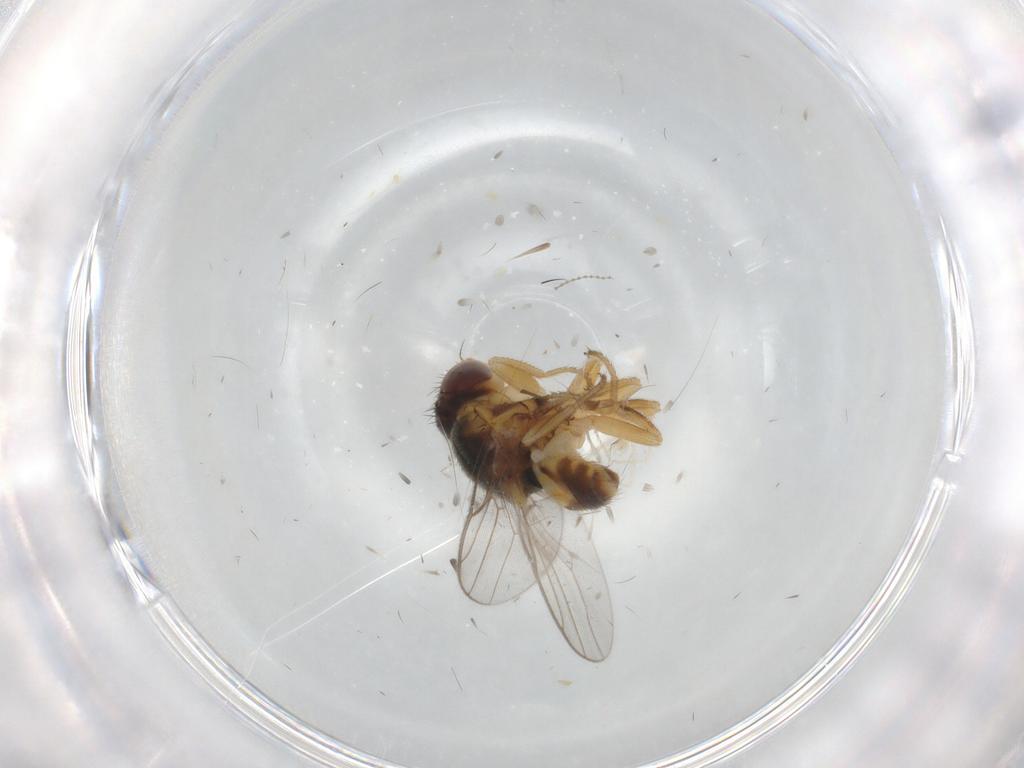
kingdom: Animalia
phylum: Arthropoda
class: Insecta
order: Diptera
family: Chloropidae
